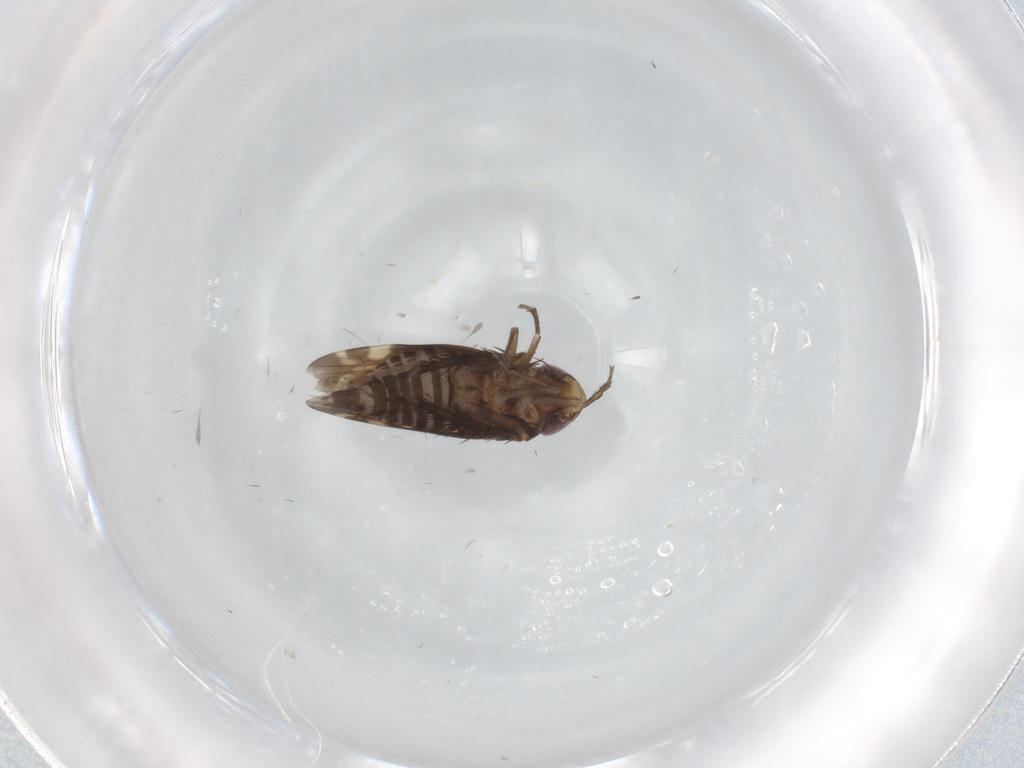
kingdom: Animalia
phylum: Arthropoda
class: Insecta
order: Hemiptera
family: Cicadellidae
